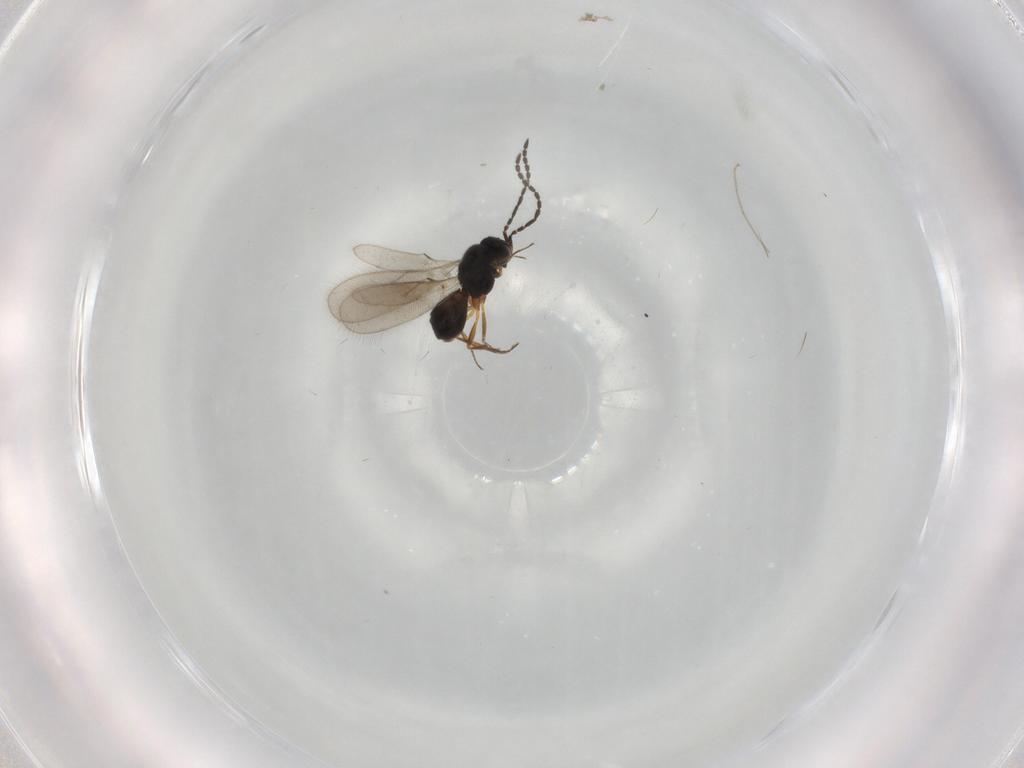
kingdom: Animalia
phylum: Arthropoda
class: Insecta
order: Hymenoptera
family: Scelionidae
